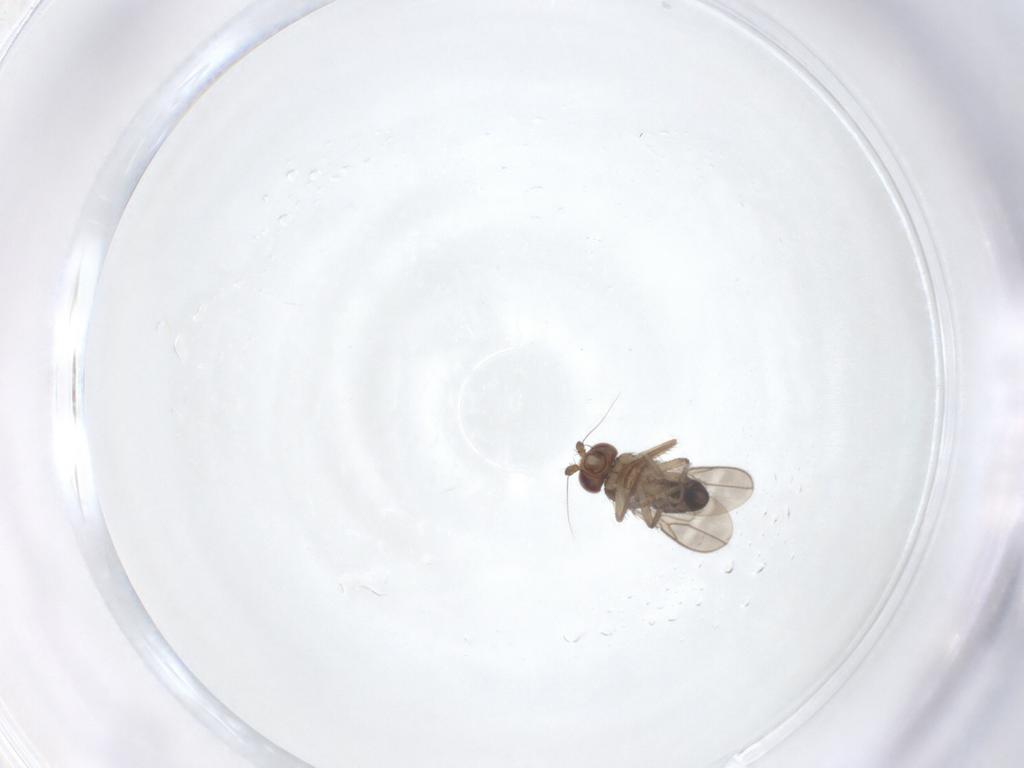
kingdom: Animalia
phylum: Arthropoda
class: Insecta
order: Diptera
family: Sphaeroceridae
